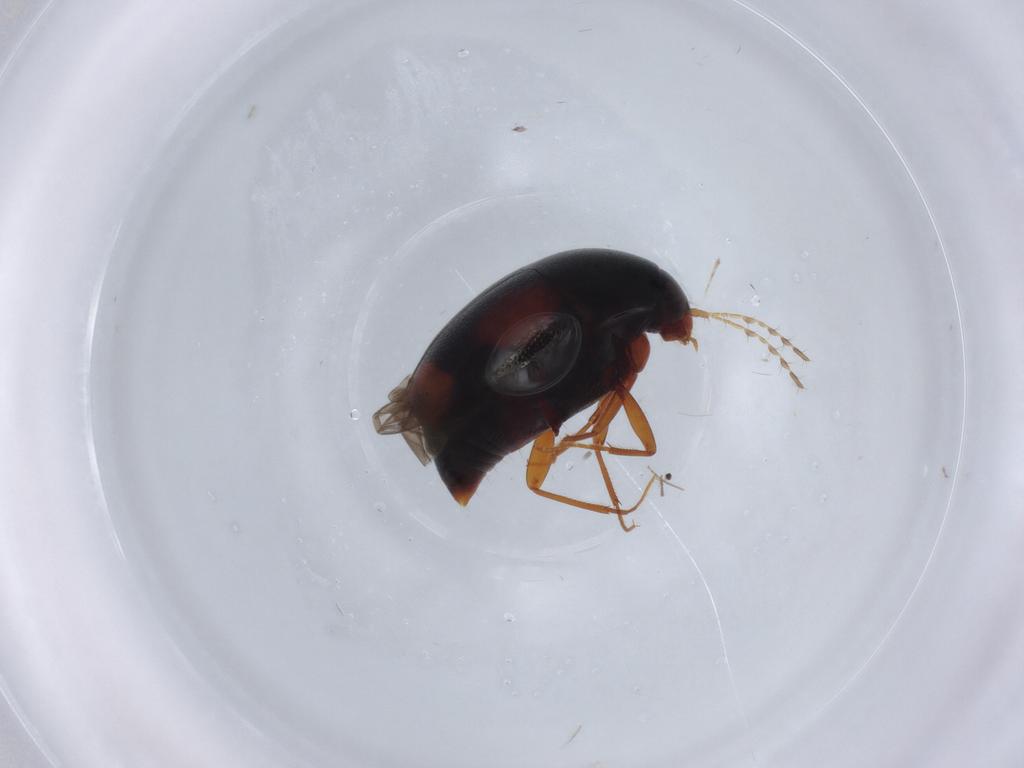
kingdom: Animalia
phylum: Arthropoda
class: Insecta
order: Coleoptera
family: Staphylinidae
